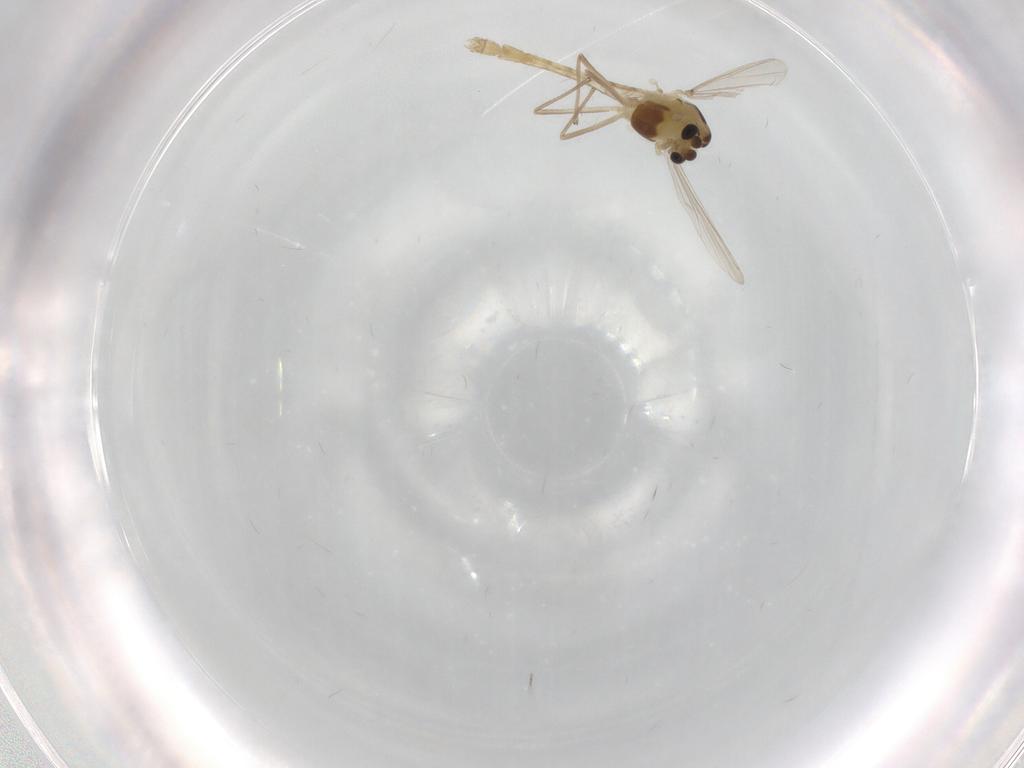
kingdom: Animalia
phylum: Arthropoda
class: Insecta
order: Diptera
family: Chironomidae
